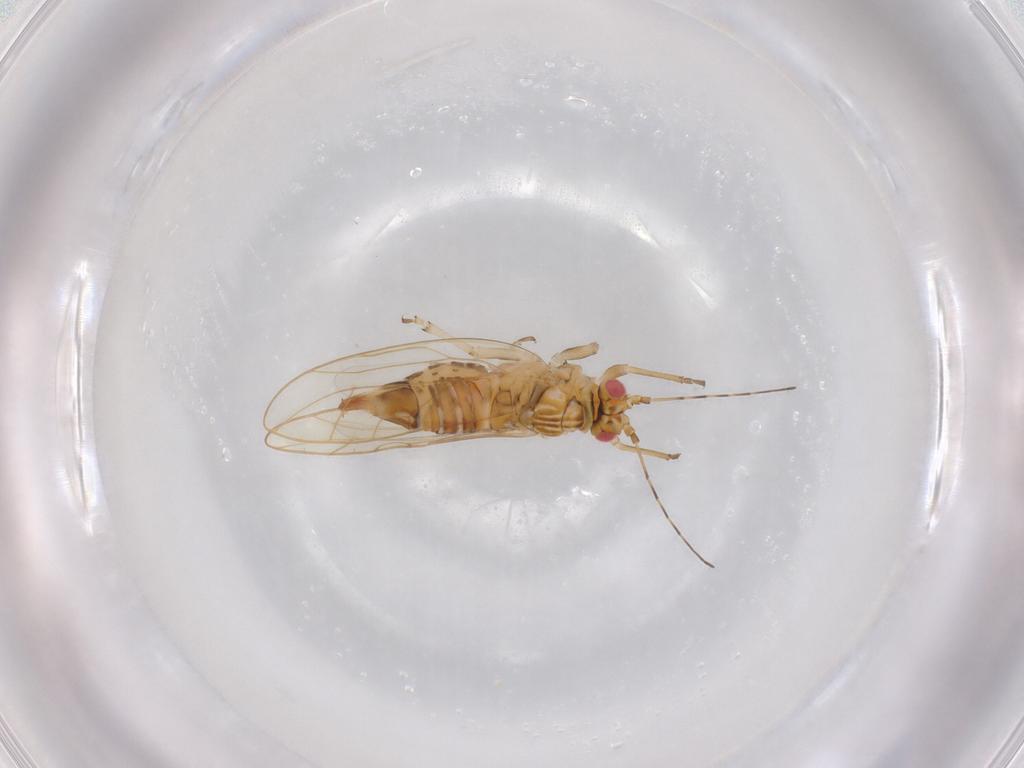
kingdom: Animalia
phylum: Arthropoda
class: Insecta
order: Hemiptera
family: Carsidaridae
